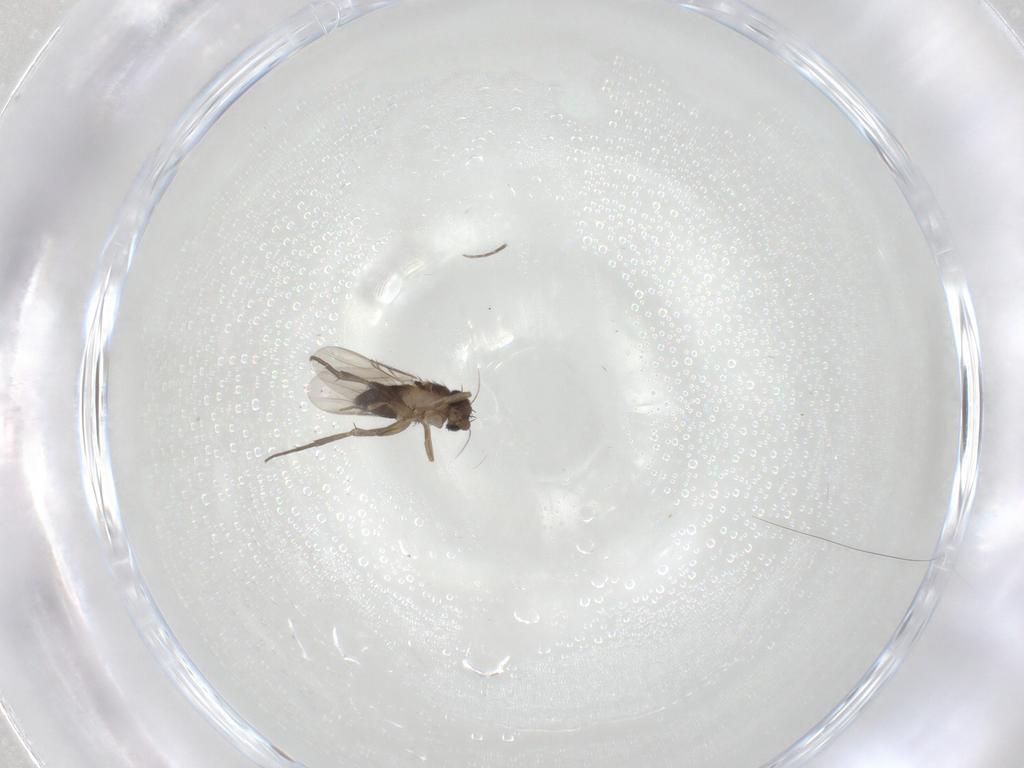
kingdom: Animalia
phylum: Arthropoda
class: Insecta
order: Diptera
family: Phoridae
